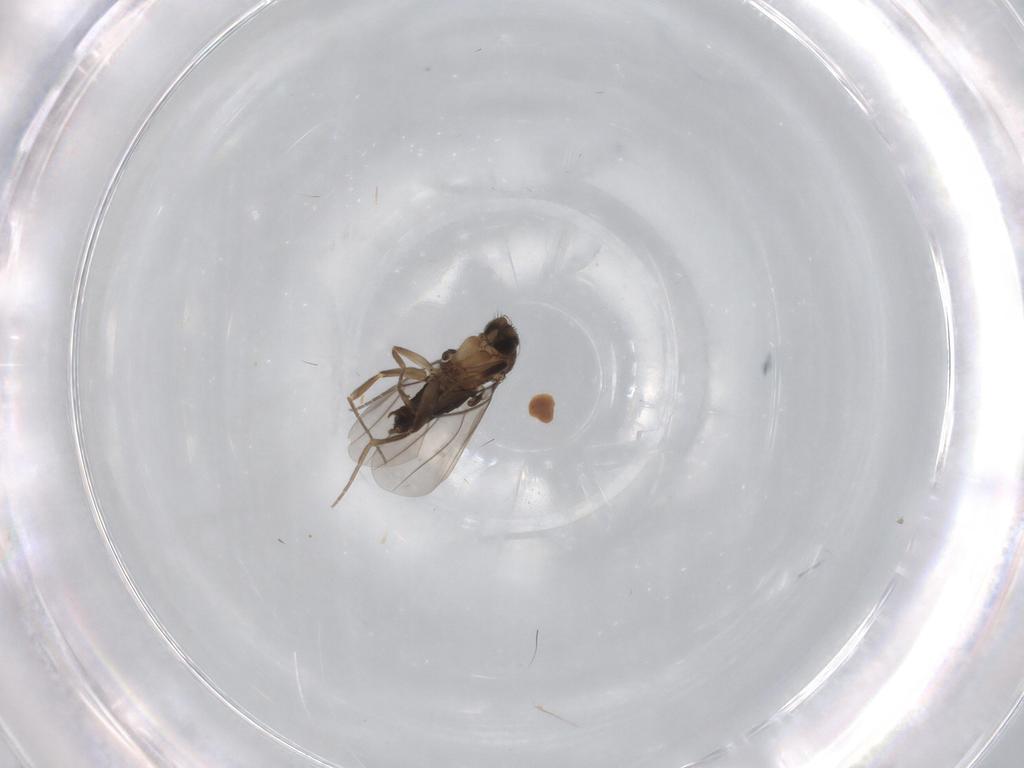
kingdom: Animalia
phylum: Arthropoda
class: Insecta
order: Diptera
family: Phoridae
